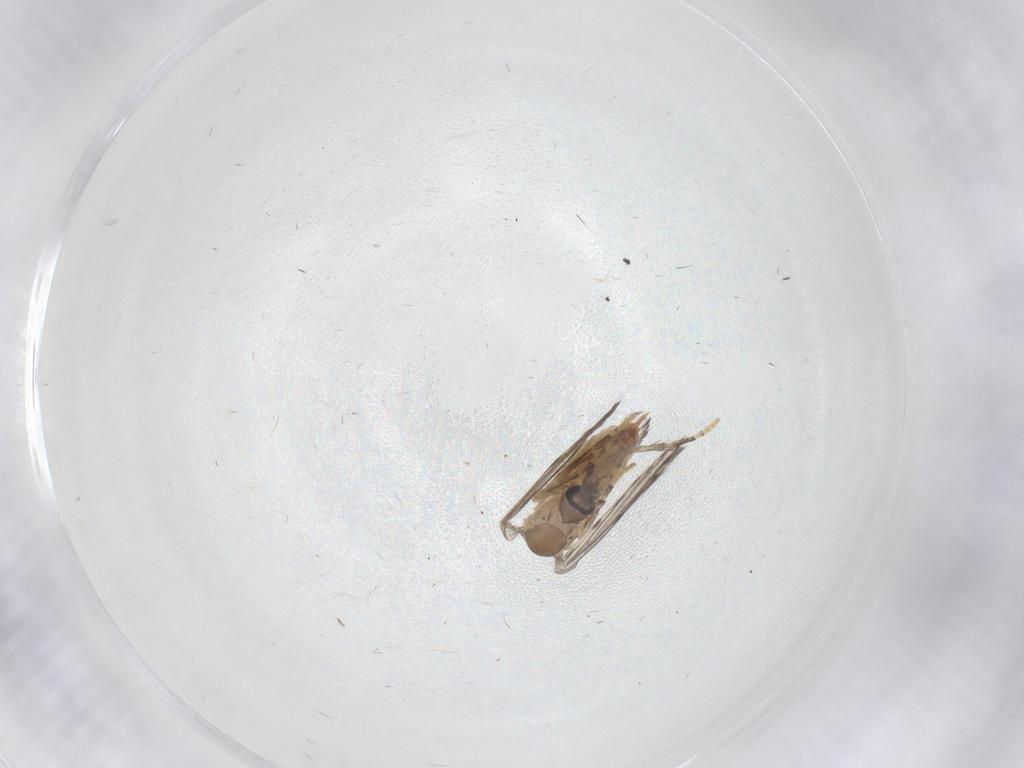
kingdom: Animalia
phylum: Arthropoda
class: Insecta
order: Diptera
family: Psychodidae
